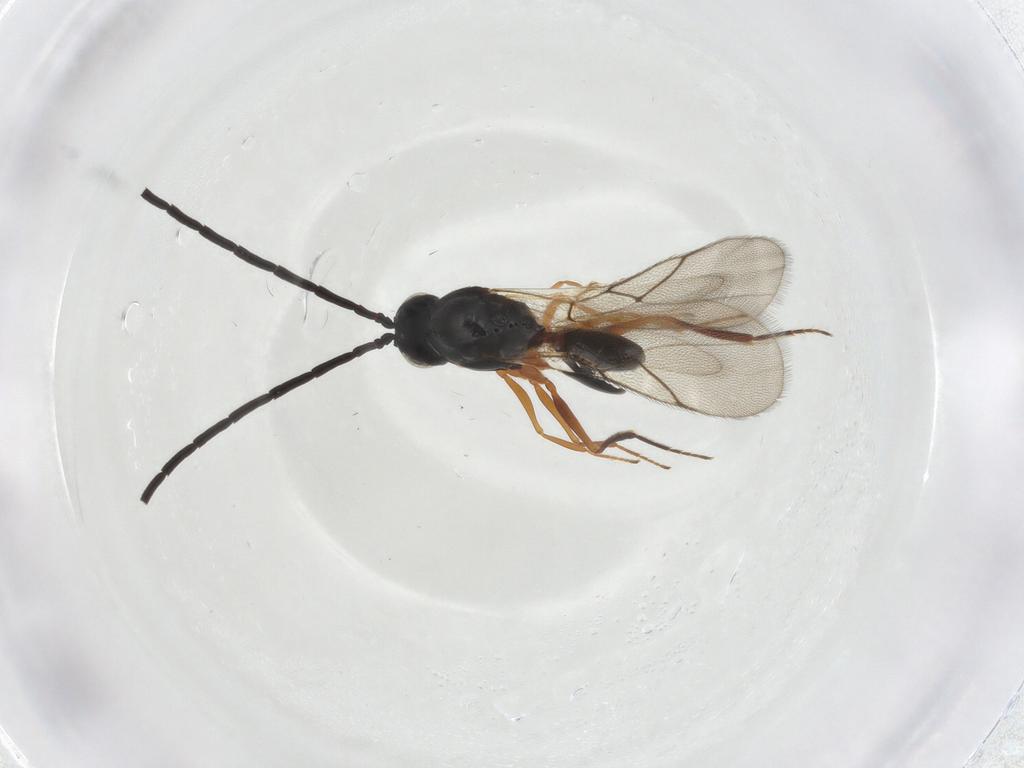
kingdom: Animalia
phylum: Arthropoda
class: Insecta
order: Hymenoptera
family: Figitidae
